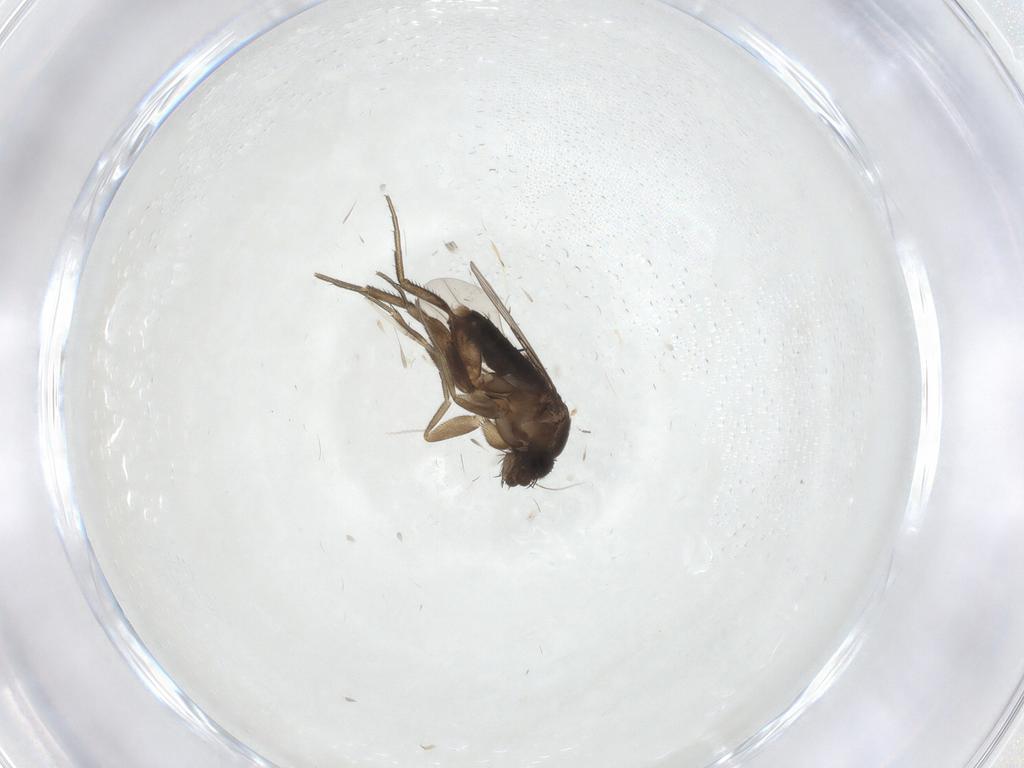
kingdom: Animalia
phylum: Arthropoda
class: Insecta
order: Diptera
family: Phoridae
